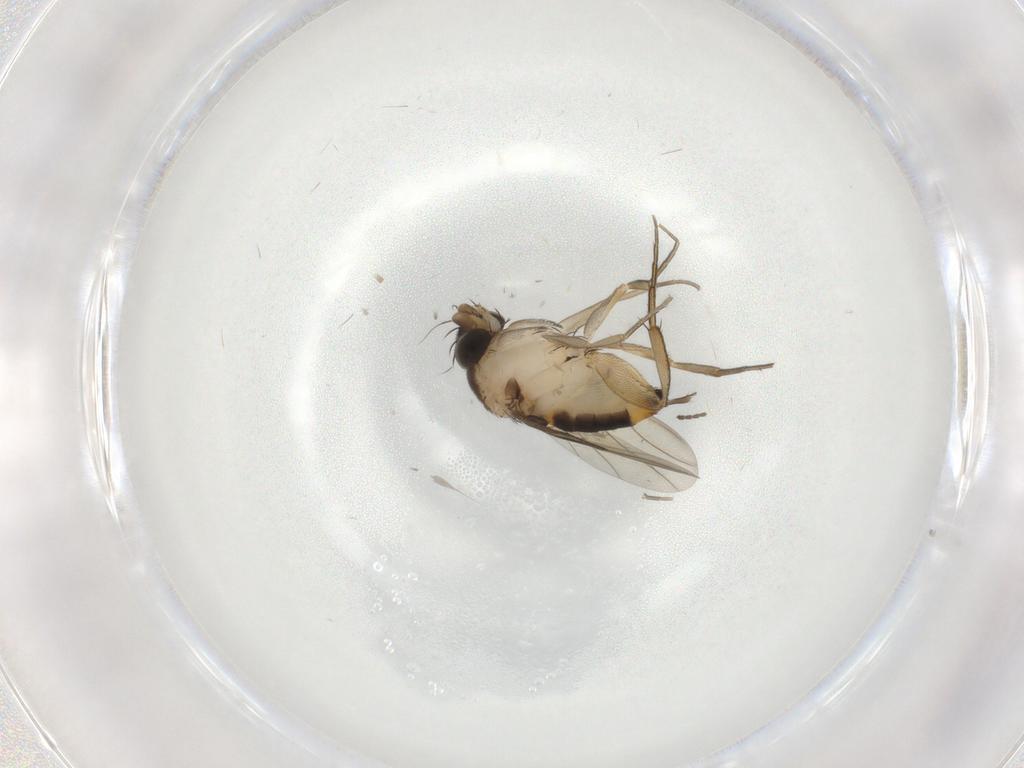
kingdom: Animalia
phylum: Arthropoda
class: Insecta
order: Diptera
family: Phoridae
